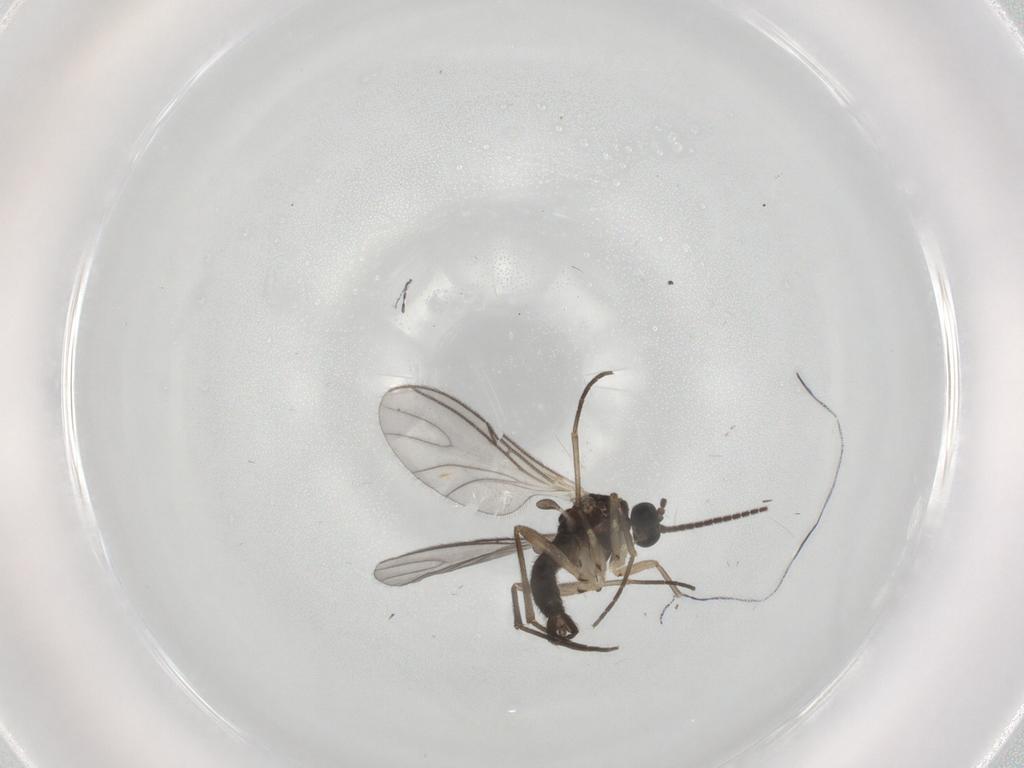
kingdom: Animalia
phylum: Arthropoda
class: Insecta
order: Diptera
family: Sciaridae
